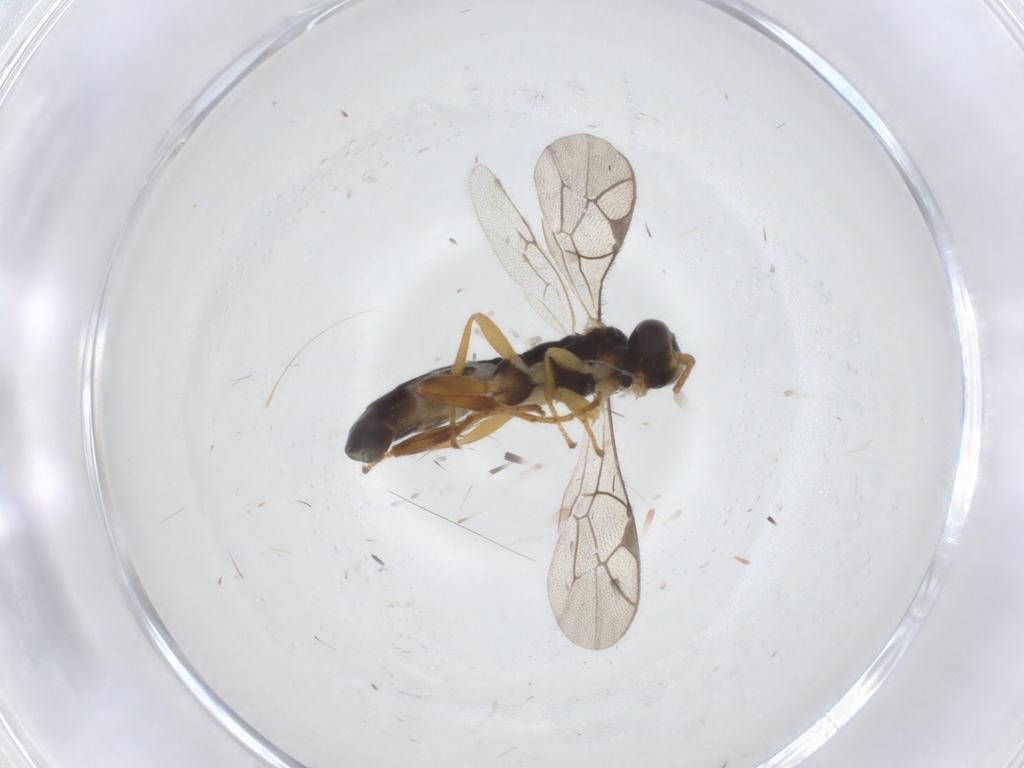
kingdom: Animalia
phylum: Arthropoda
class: Insecta
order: Hymenoptera
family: Ichneumonidae
